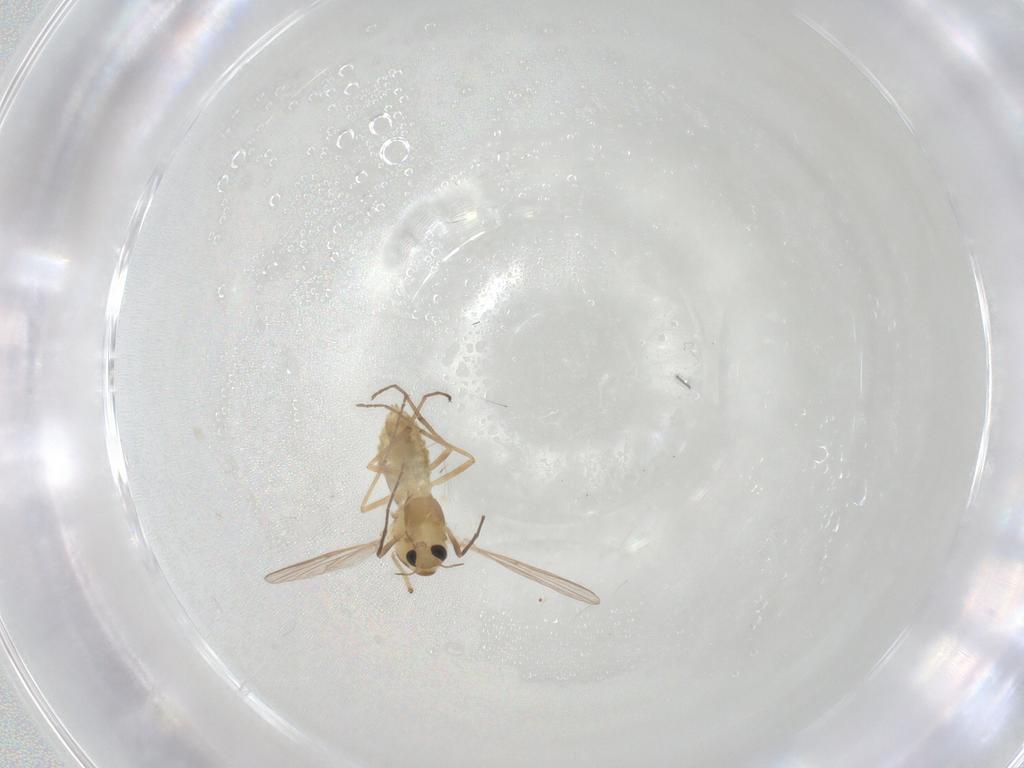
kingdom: Animalia
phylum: Arthropoda
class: Insecta
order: Diptera
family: Chironomidae
